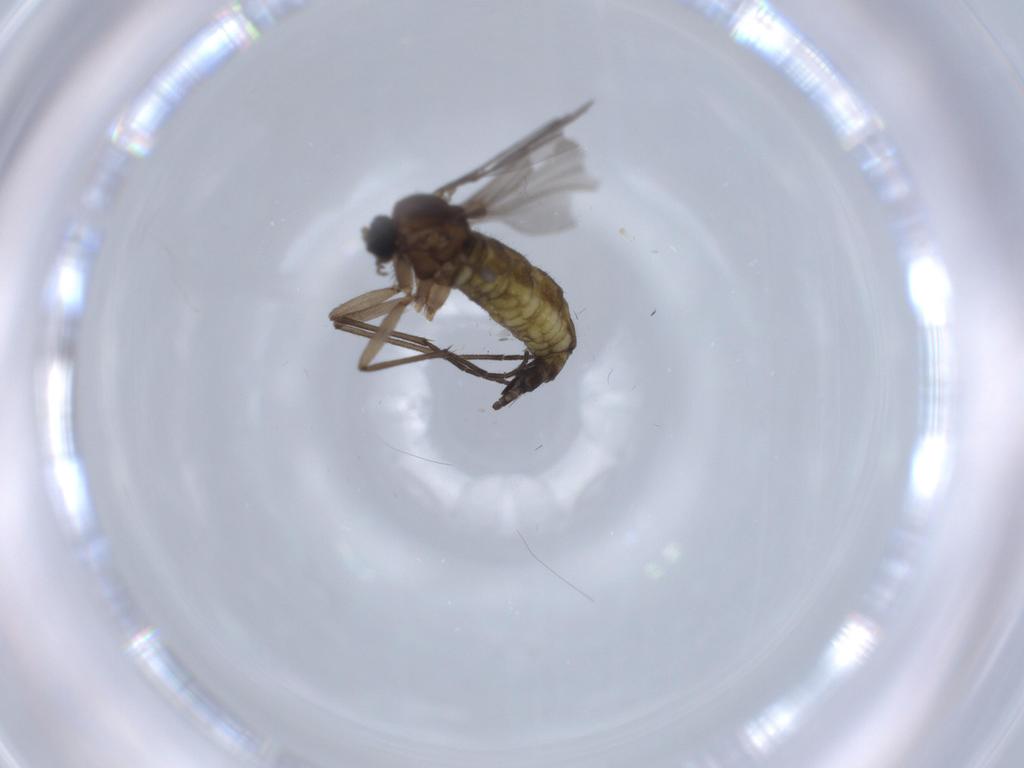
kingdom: Animalia
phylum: Arthropoda
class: Insecta
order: Diptera
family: Sciaridae
